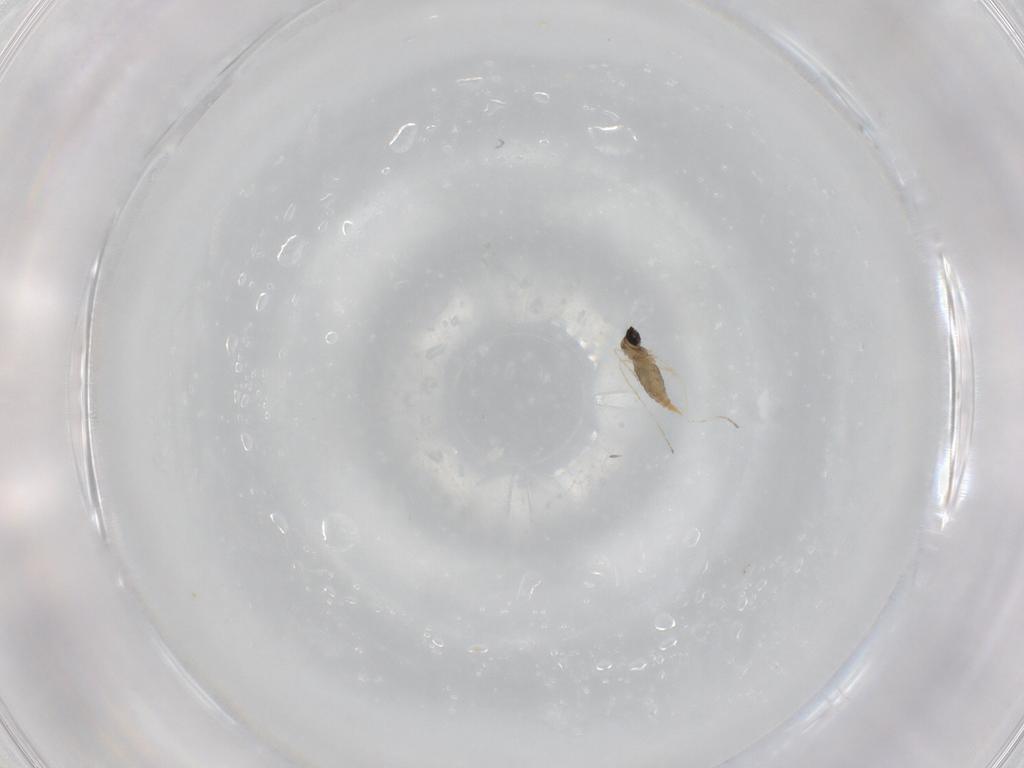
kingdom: Animalia
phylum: Arthropoda
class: Insecta
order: Diptera
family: Cecidomyiidae
